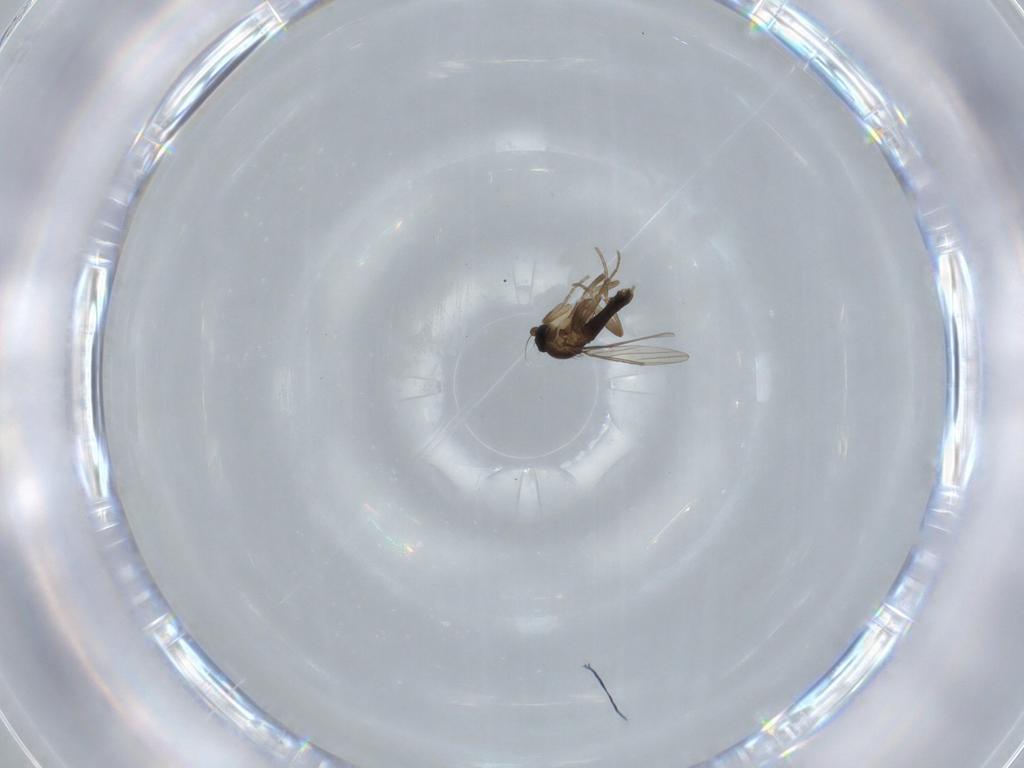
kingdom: Animalia
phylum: Arthropoda
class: Insecta
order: Diptera
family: Phoridae
